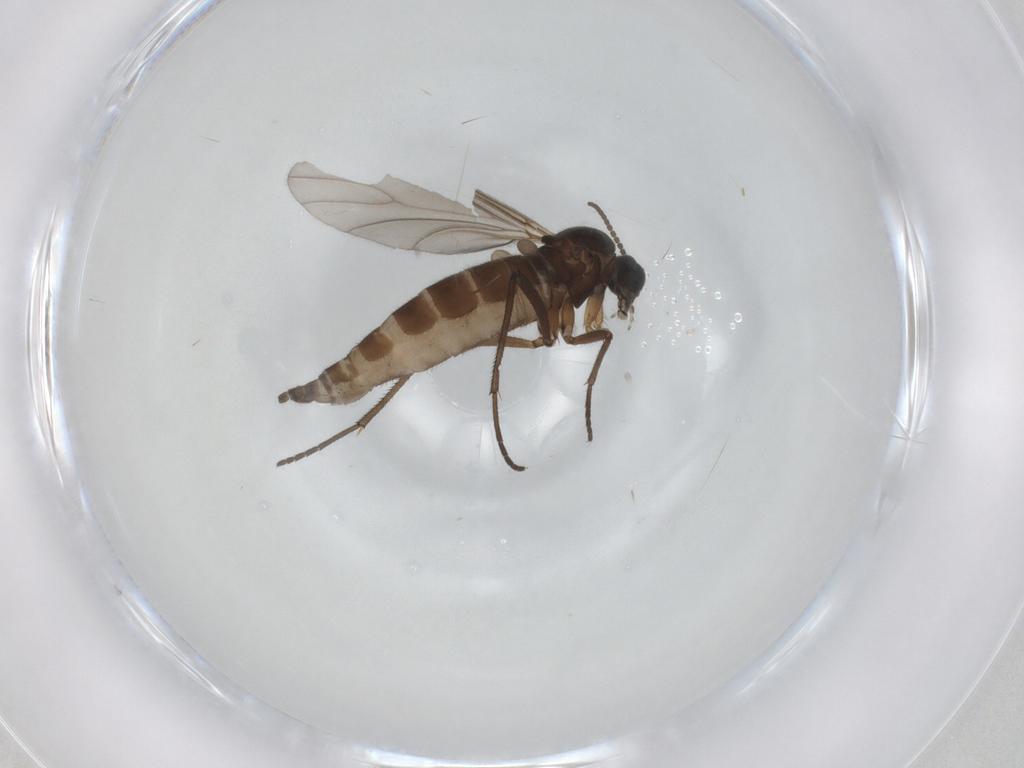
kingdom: Animalia
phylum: Arthropoda
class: Insecta
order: Diptera
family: Sciaridae
